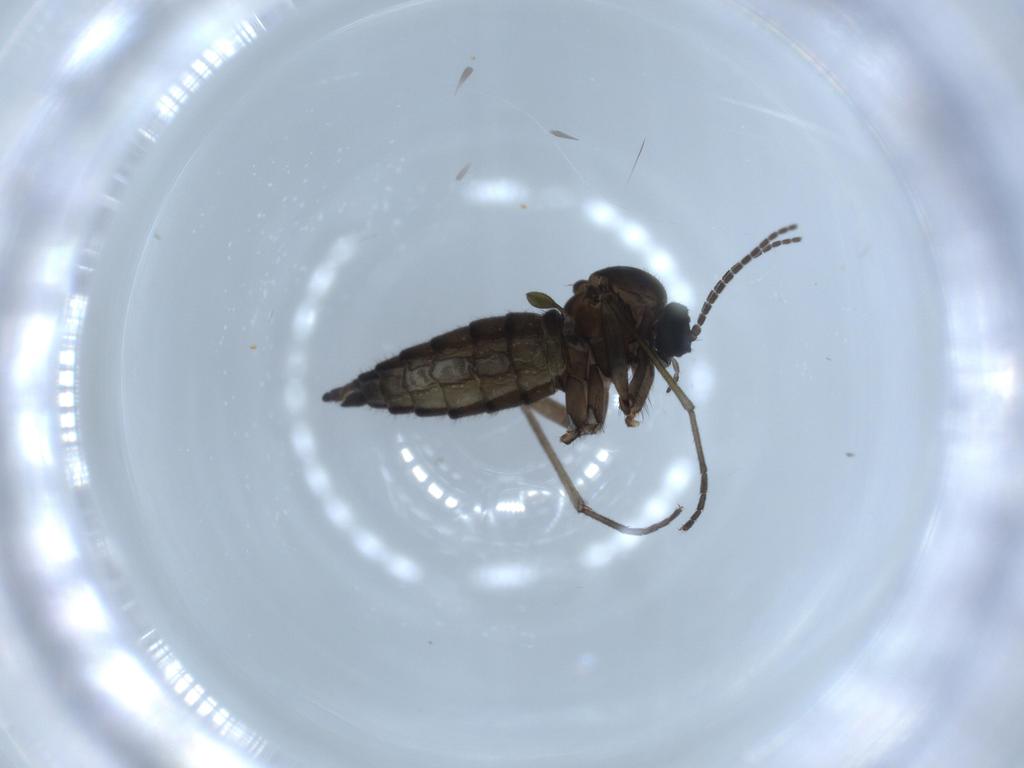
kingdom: Animalia
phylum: Arthropoda
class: Insecta
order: Diptera
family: Sciaridae
